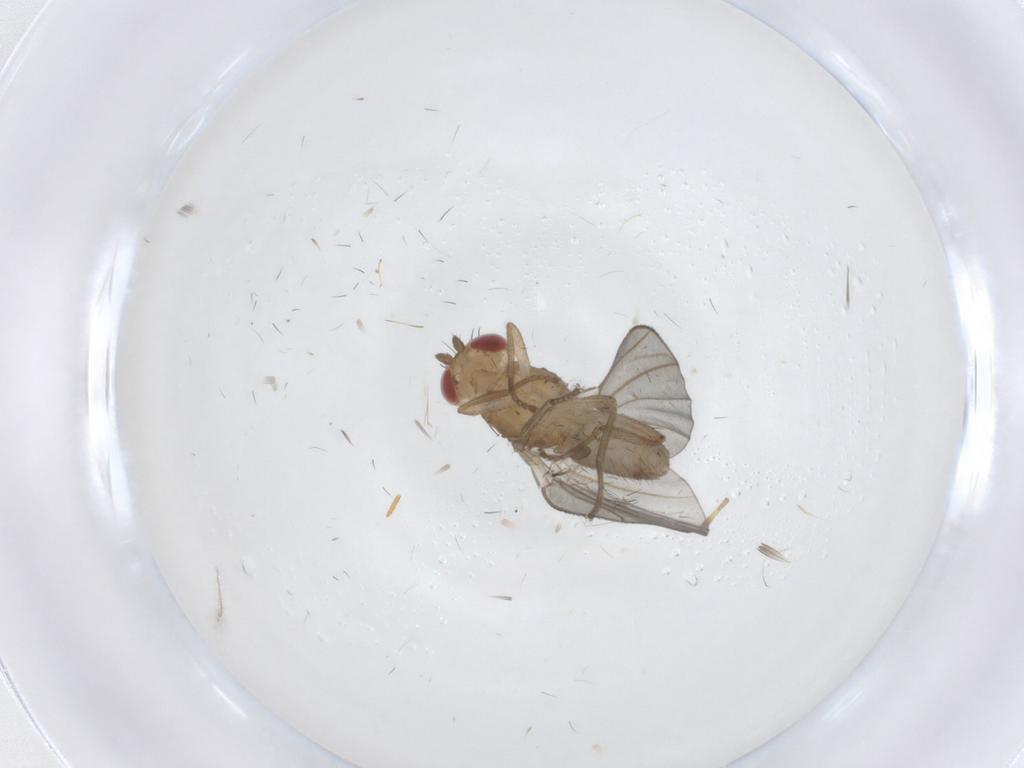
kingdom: Animalia
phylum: Arthropoda
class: Insecta
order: Diptera
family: Anthomyzidae
